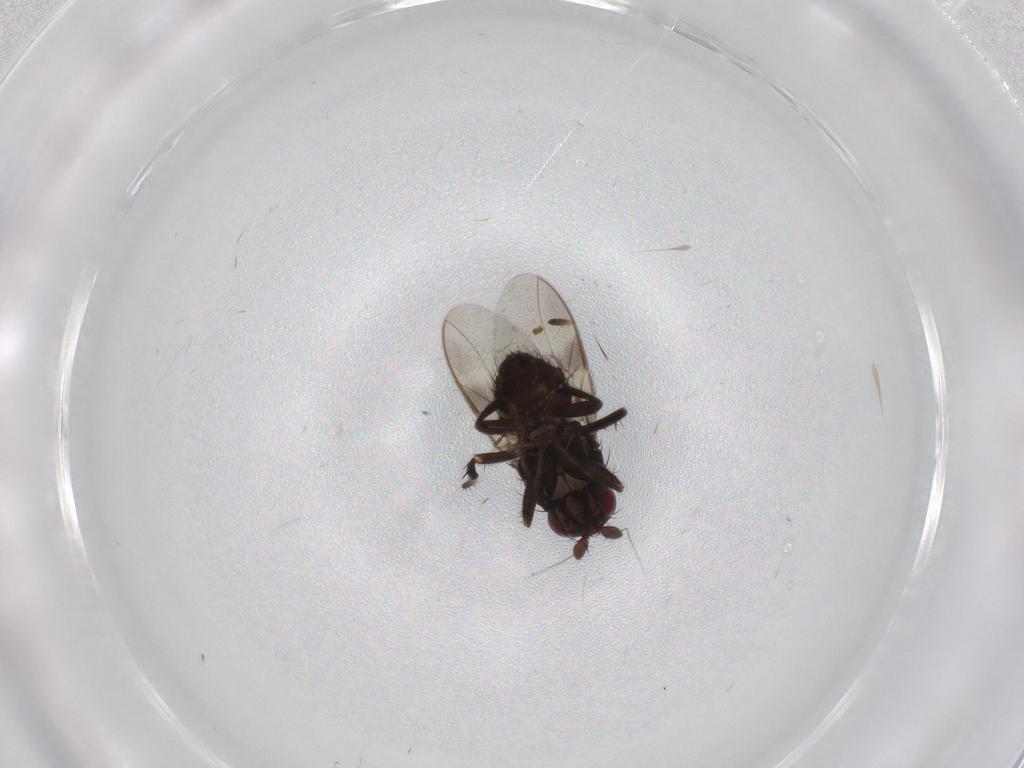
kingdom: Animalia
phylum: Arthropoda
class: Insecta
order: Diptera
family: Sphaeroceridae
